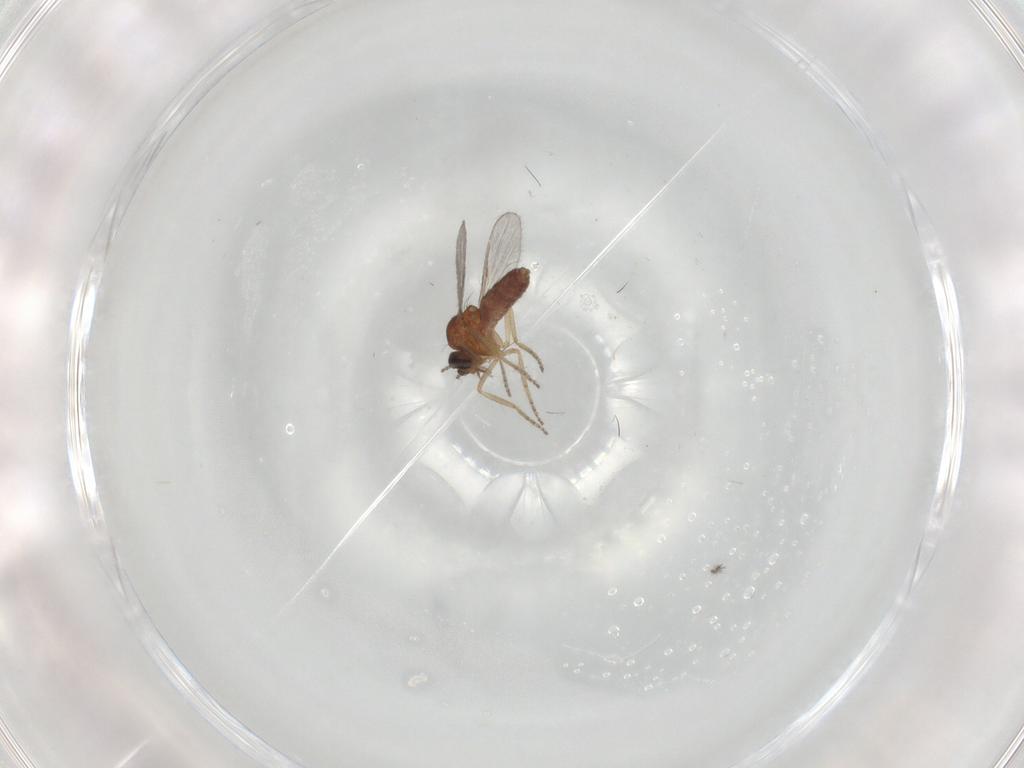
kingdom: Animalia
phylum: Arthropoda
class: Insecta
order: Diptera
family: Ceratopogonidae
